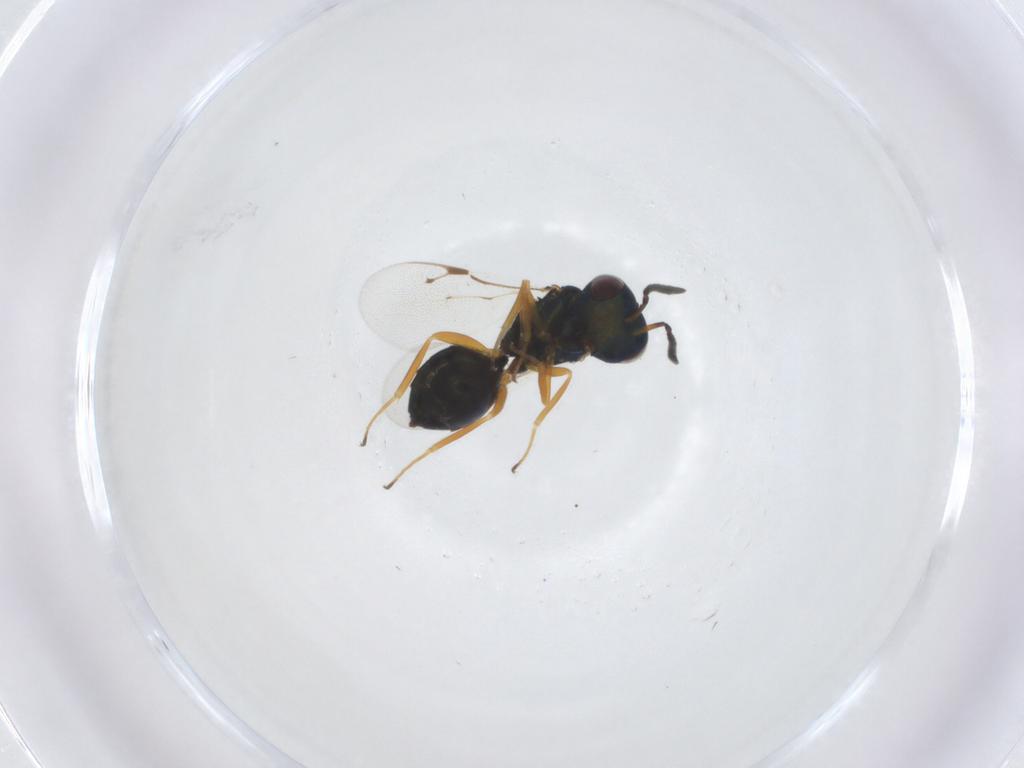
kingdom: Animalia
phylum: Arthropoda
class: Insecta
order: Hymenoptera
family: Pteromalidae
